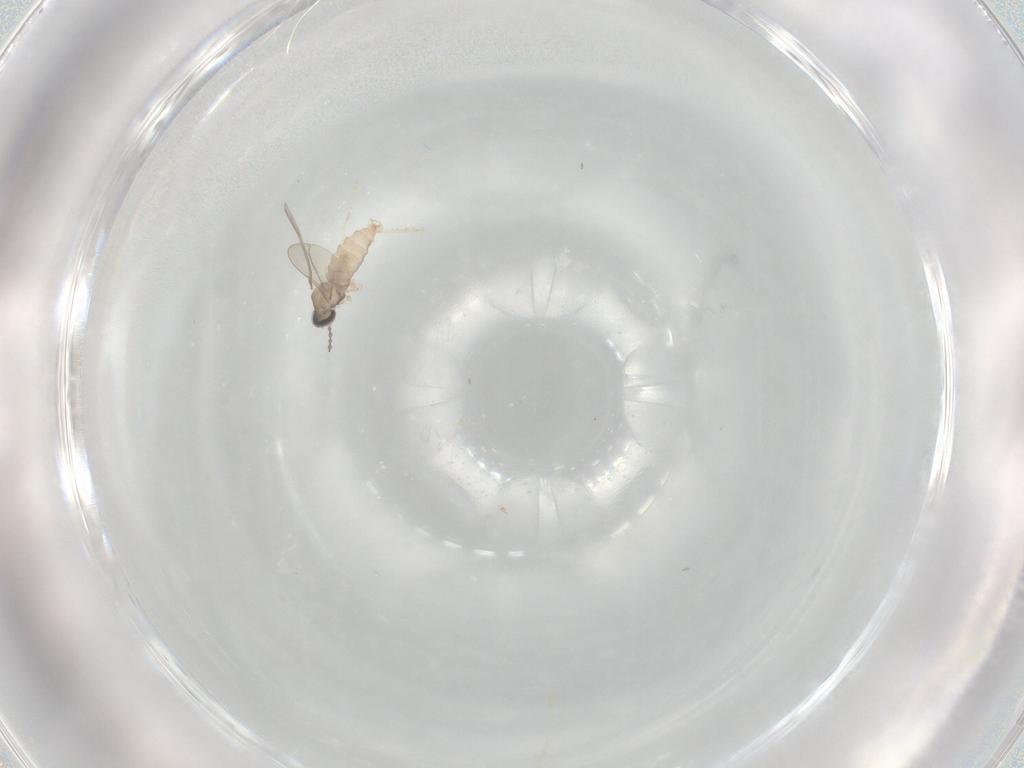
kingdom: Animalia
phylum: Arthropoda
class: Insecta
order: Diptera
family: Cecidomyiidae
